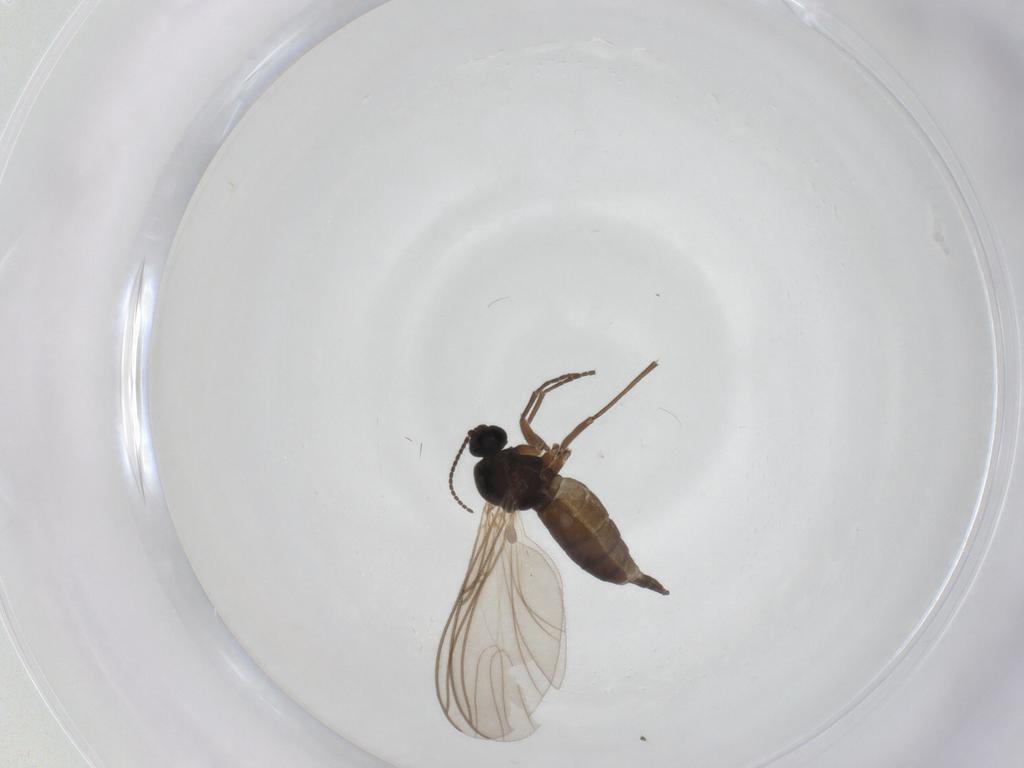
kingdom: Animalia
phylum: Arthropoda
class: Insecta
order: Diptera
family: Sciaridae
